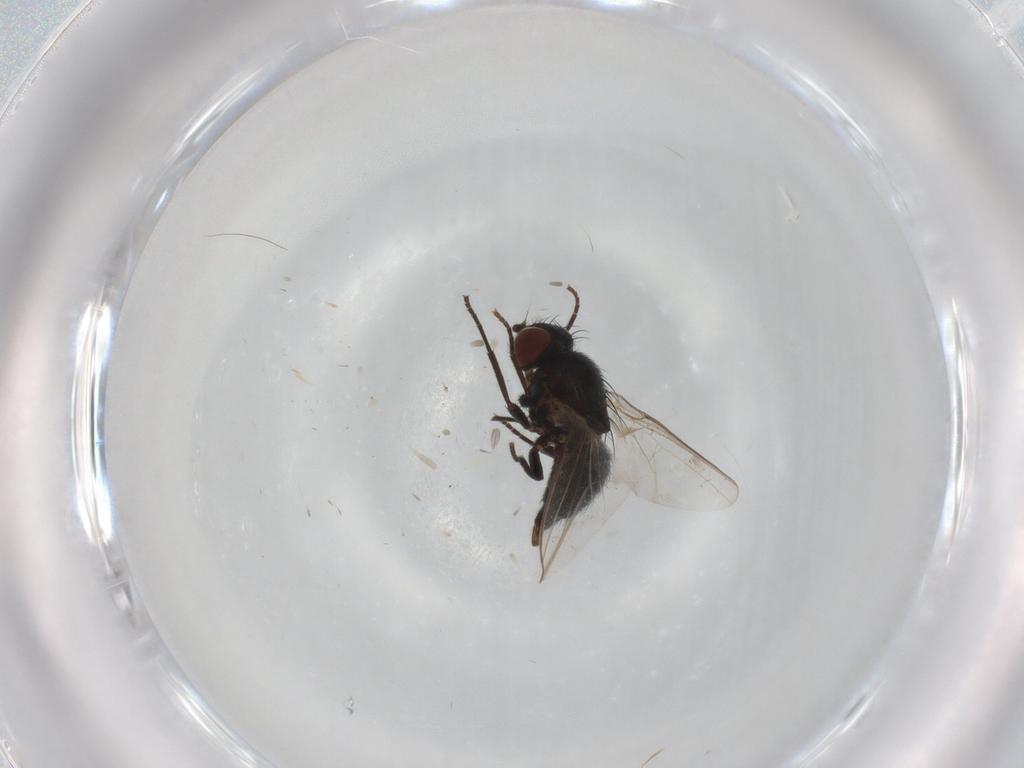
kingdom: Animalia
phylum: Arthropoda
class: Insecta
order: Diptera
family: Agromyzidae
